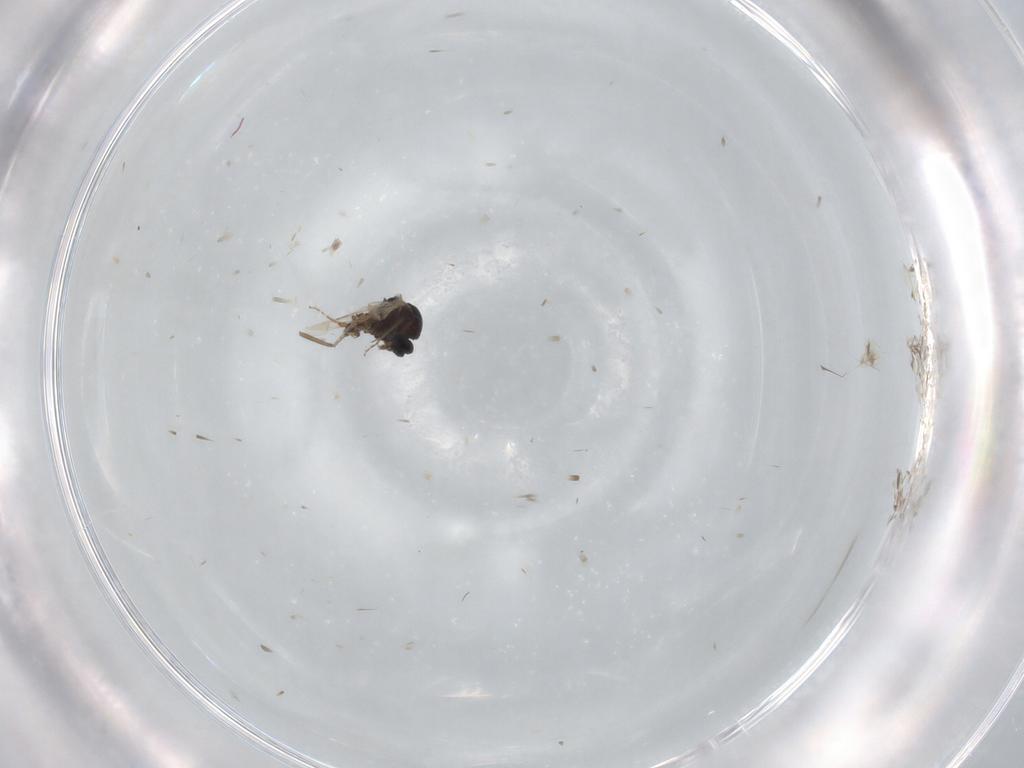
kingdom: Animalia
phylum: Arthropoda
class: Insecta
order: Diptera
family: Ceratopogonidae
